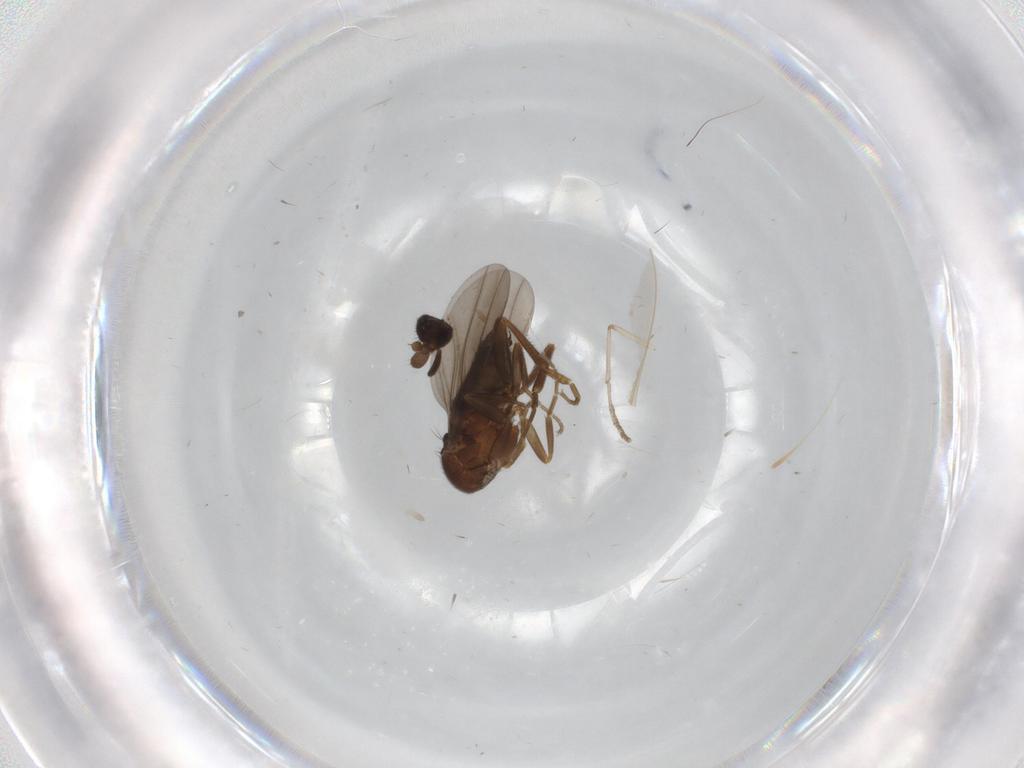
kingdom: Animalia
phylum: Arthropoda
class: Insecta
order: Diptera
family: Phoridae
